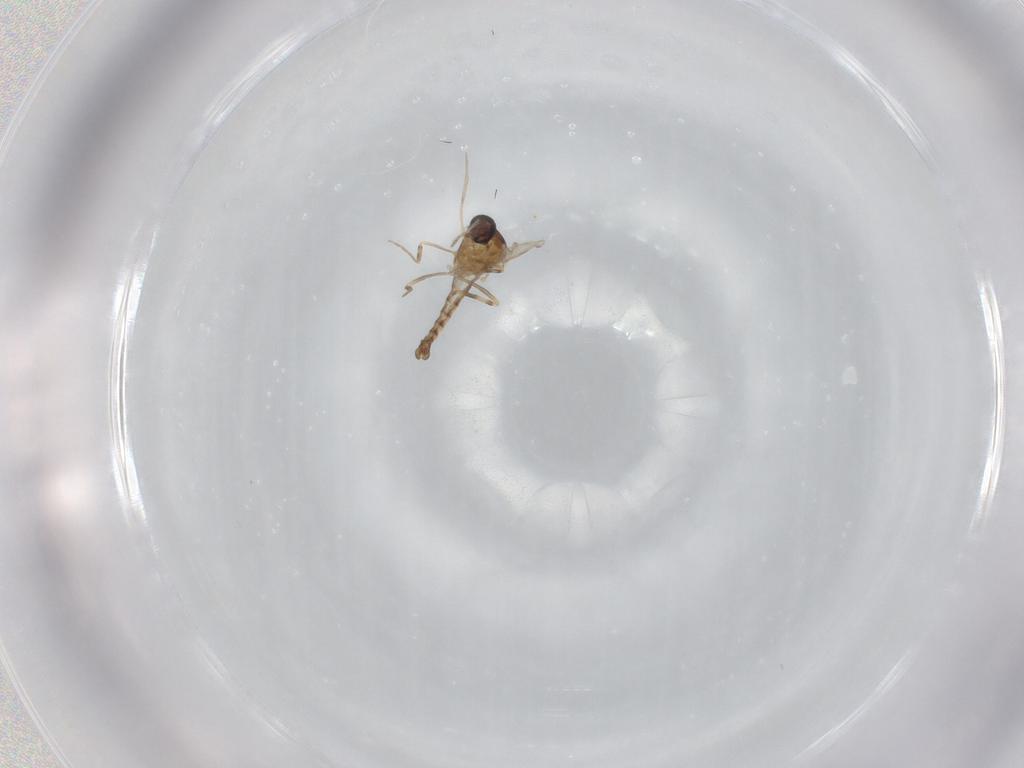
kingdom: Animalia
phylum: Arthropoda
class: Insecta
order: Diptera
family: Ceratopogonidae
